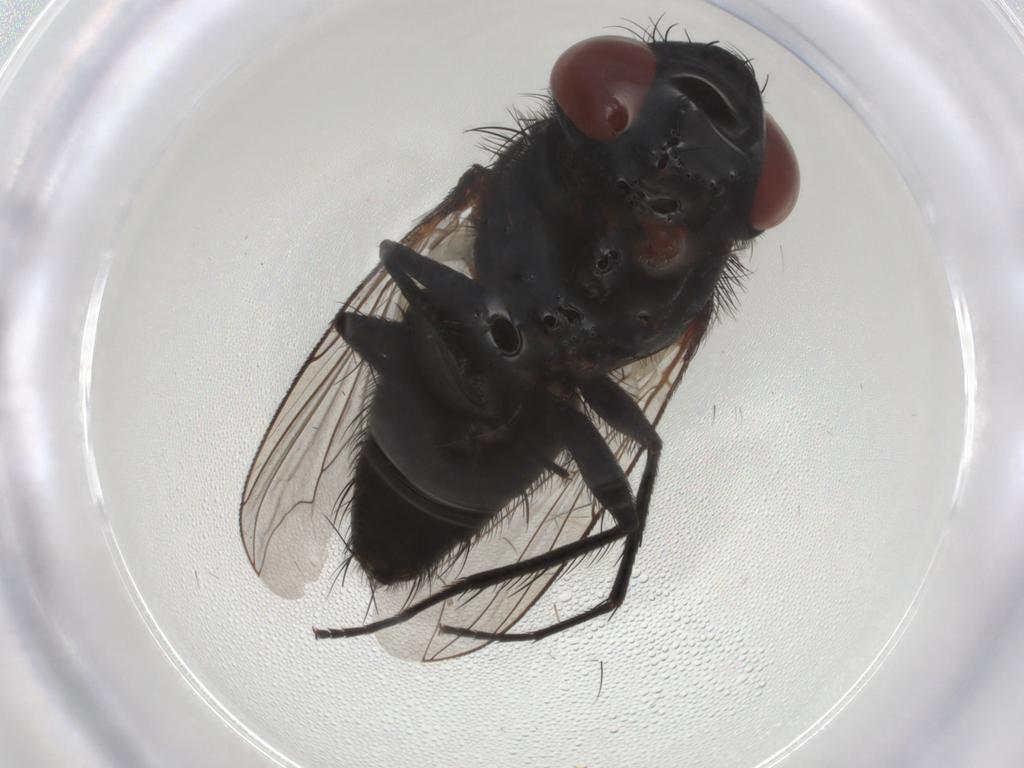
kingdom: Animalia
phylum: Arthropoda
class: Insecta
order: Diptera
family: Sarcophagidae
